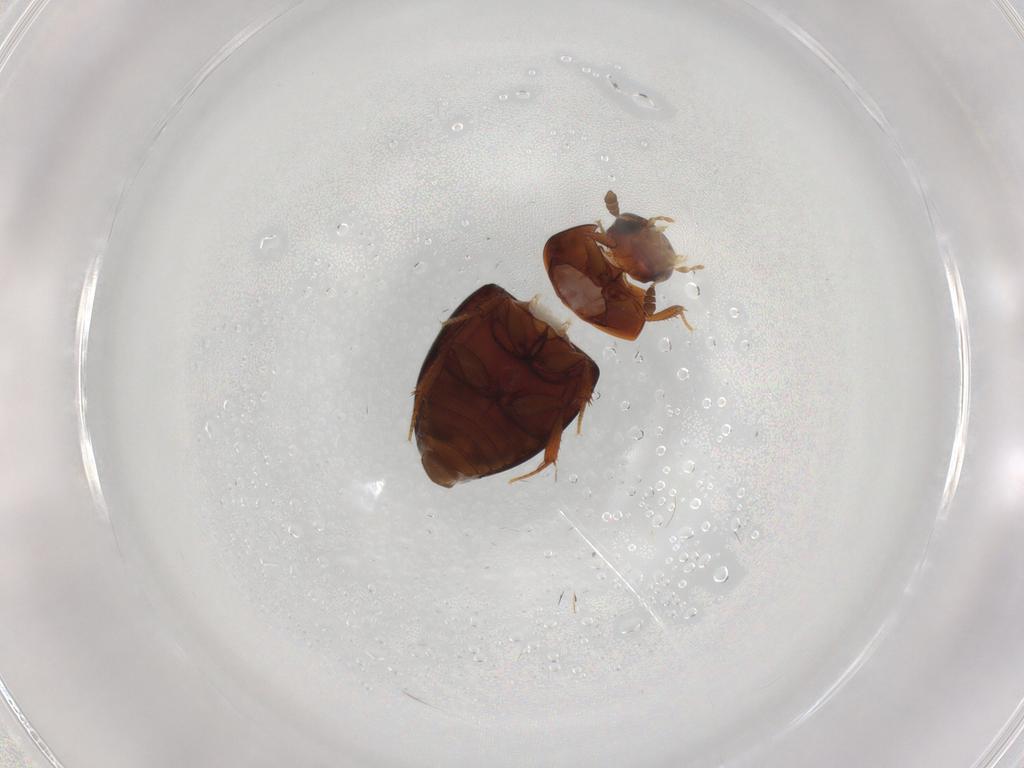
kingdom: Animalia
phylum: Arthropoda
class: Insecta
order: Coleoptera
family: Hydrophilidae
